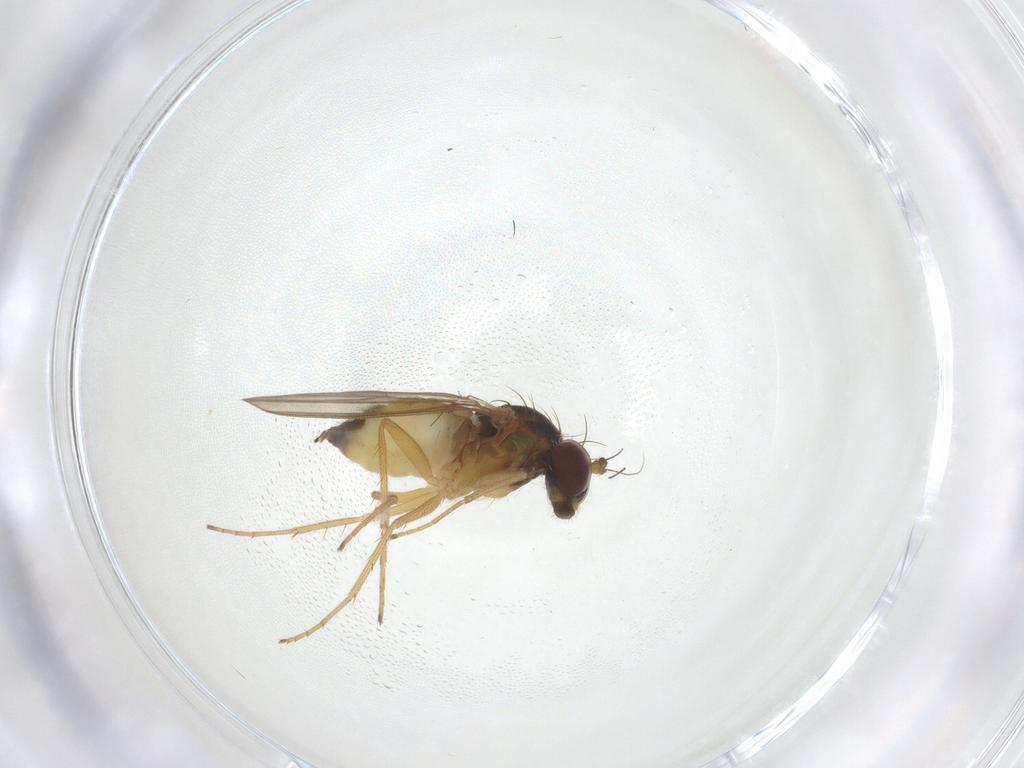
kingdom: Animalia
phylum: Arthropoda
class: Insecta
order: Diptera
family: Dolichopodidae
